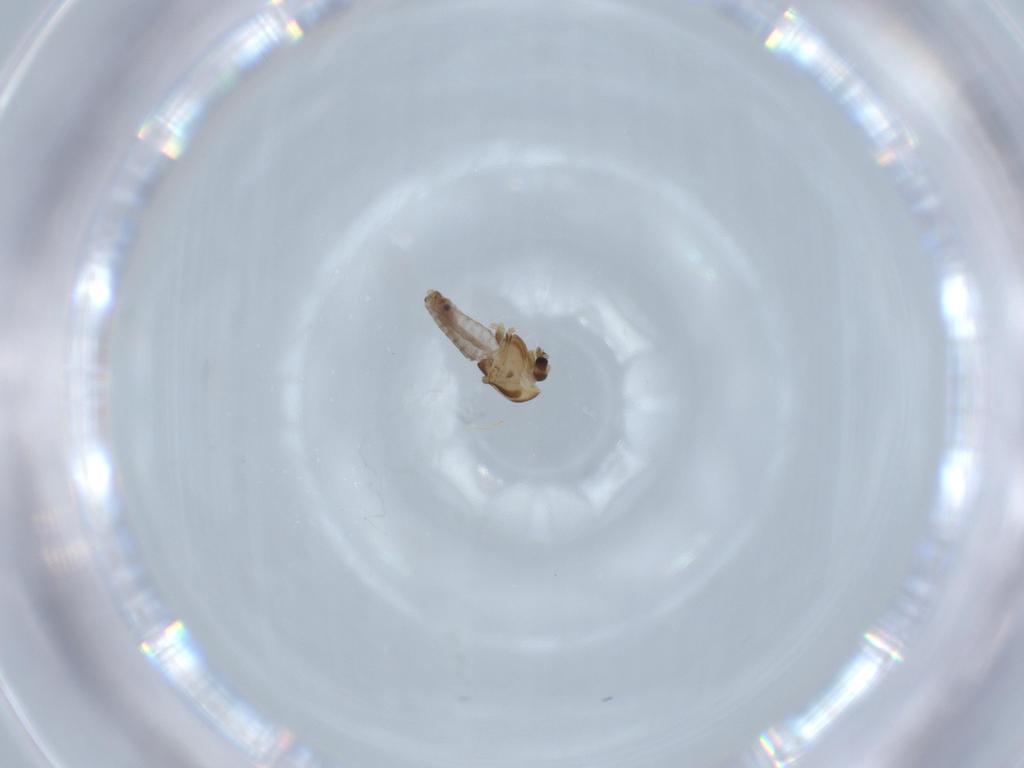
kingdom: Animalia
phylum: Arthropoda
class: Insecta
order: Diptera
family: Chironomidae
